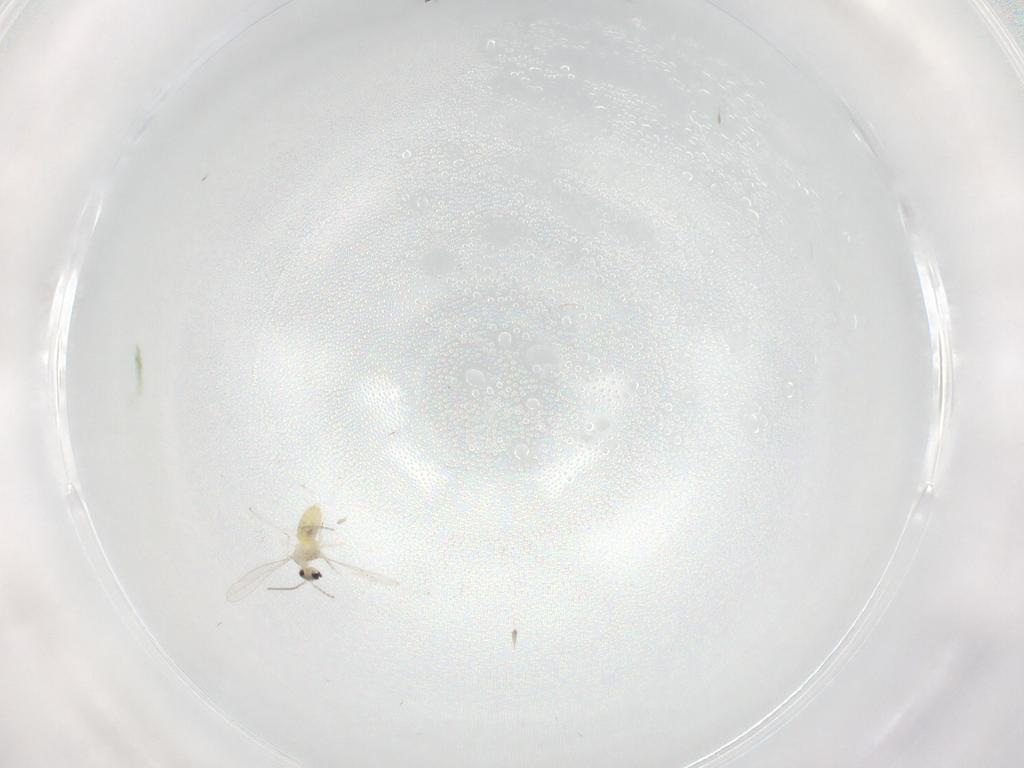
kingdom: Animalia
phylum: Arthropoda
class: Insecta
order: Diptera
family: Cecidomyiidae
